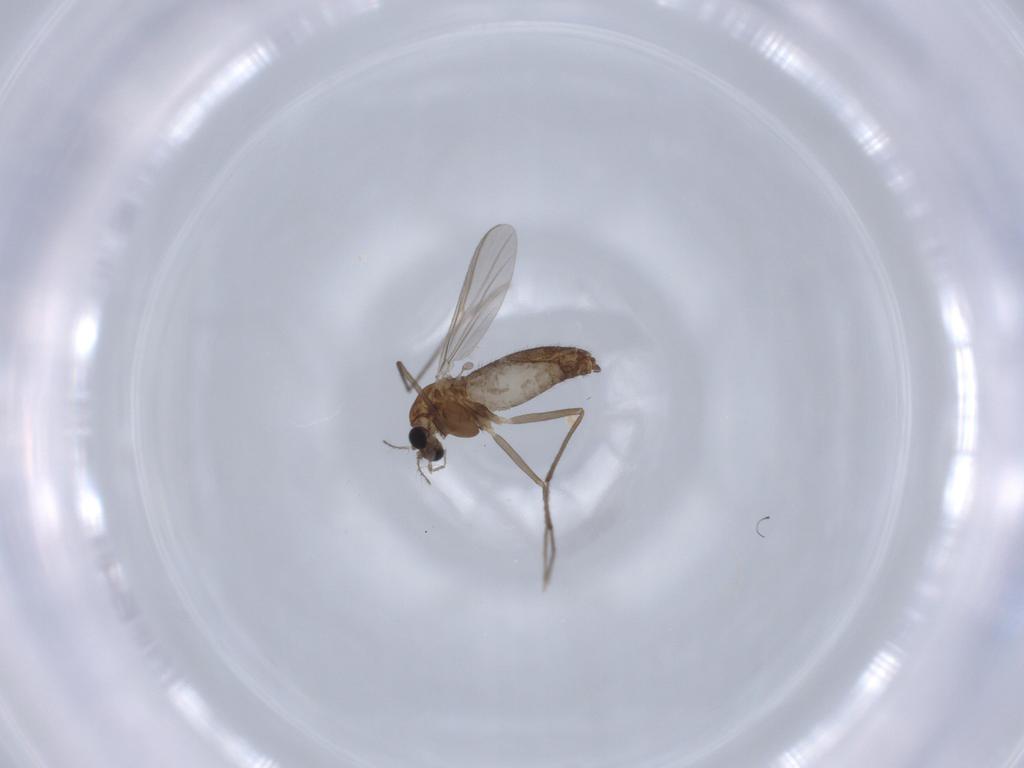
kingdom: Animalia
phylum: Arthropoda
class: Insecta
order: Diptera
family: Chironomidae
